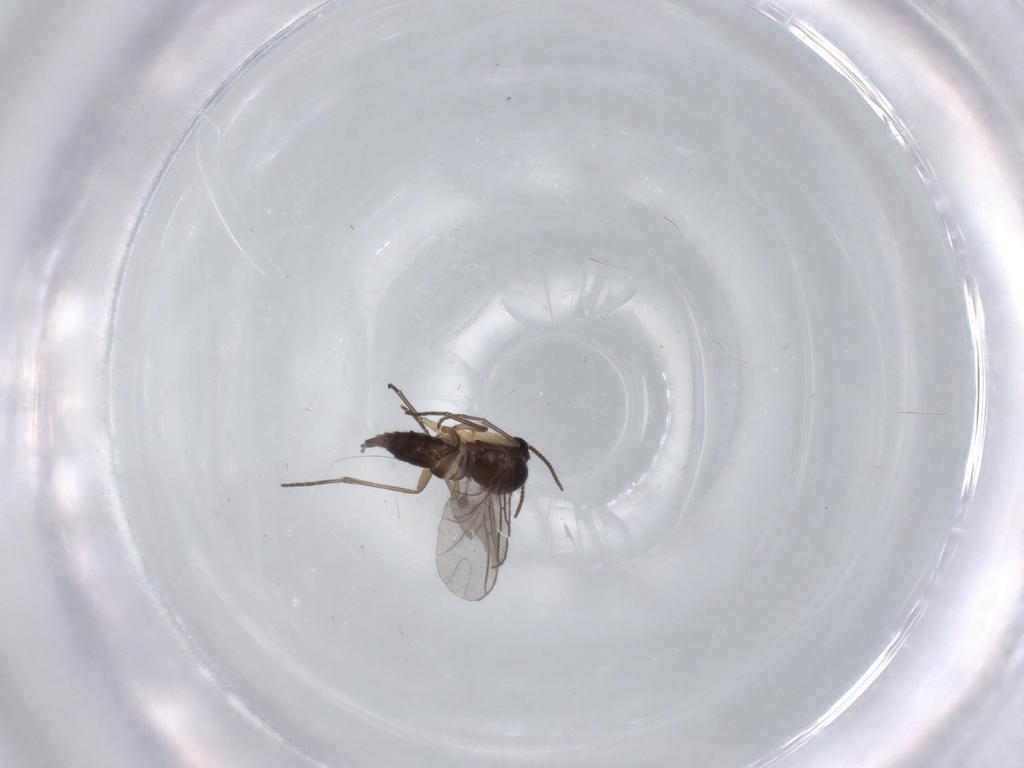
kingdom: Animalia
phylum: Arthropoda
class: Insecta
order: Diptera
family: Sciaridae
